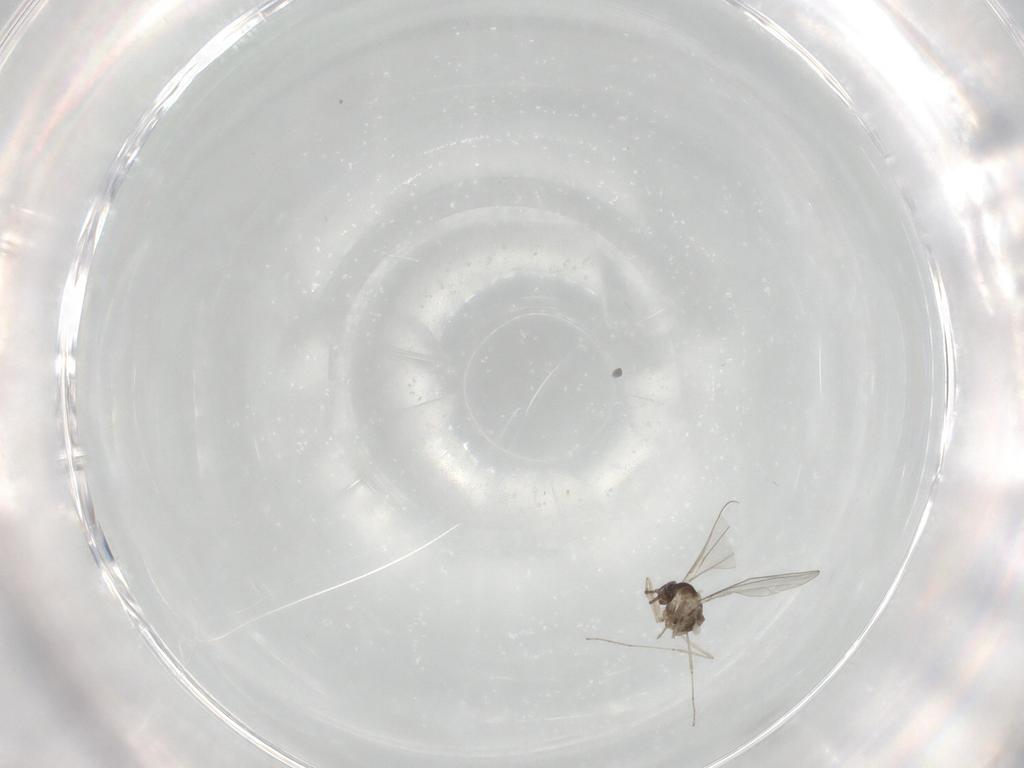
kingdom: Animalia
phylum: Arthropoda
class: Insecta
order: Diptera
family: Cecidomyiidae
